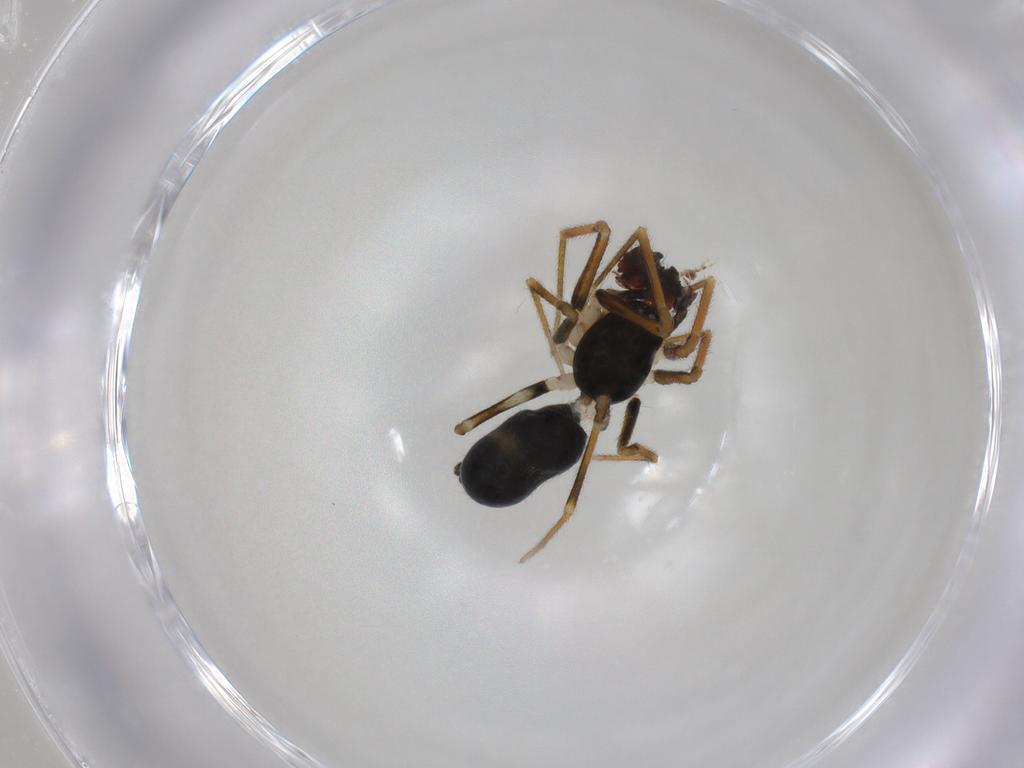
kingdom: Animalia
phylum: Arthropoda
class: Arachnida
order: Araneae
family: Linyphiidae
